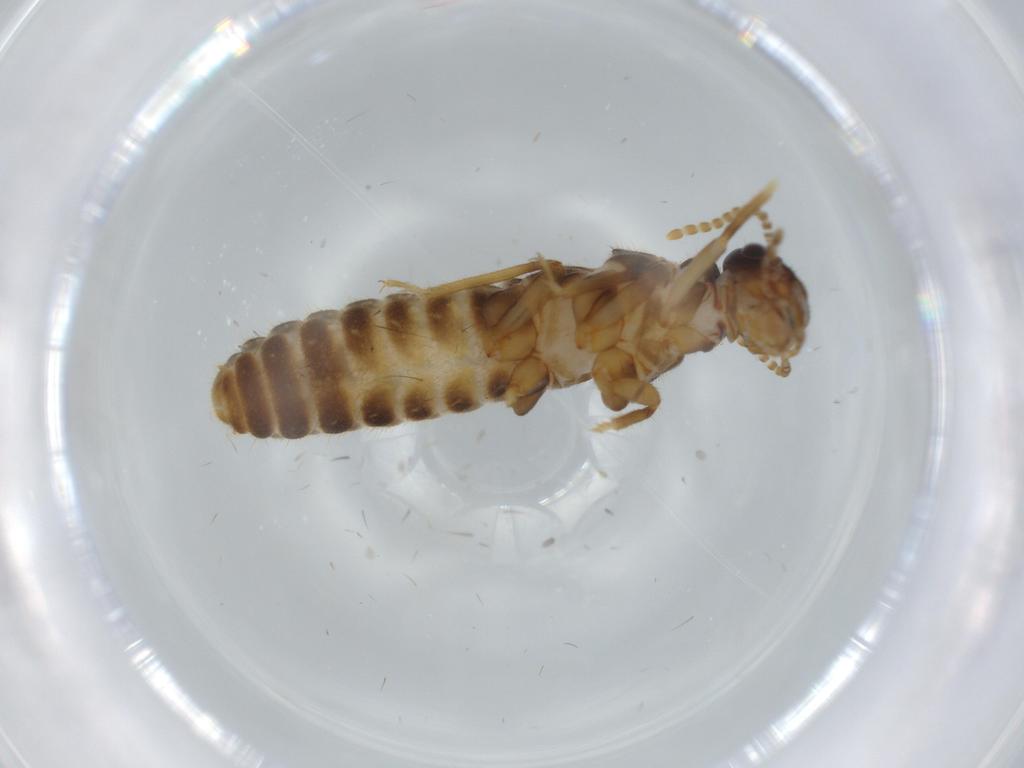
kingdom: Animalia
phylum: Arthropoda
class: Insecta
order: Blattodea
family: Termitidae
